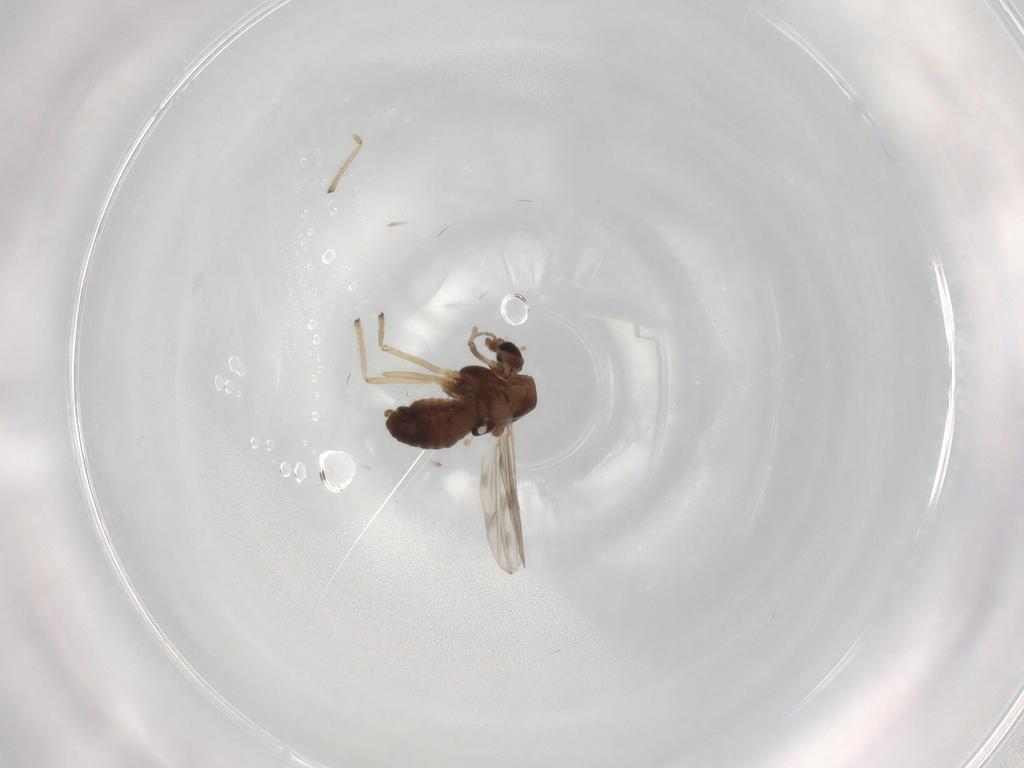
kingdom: Animalia
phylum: Arthropoda
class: Insecta
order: Diptera
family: Chironomidae
